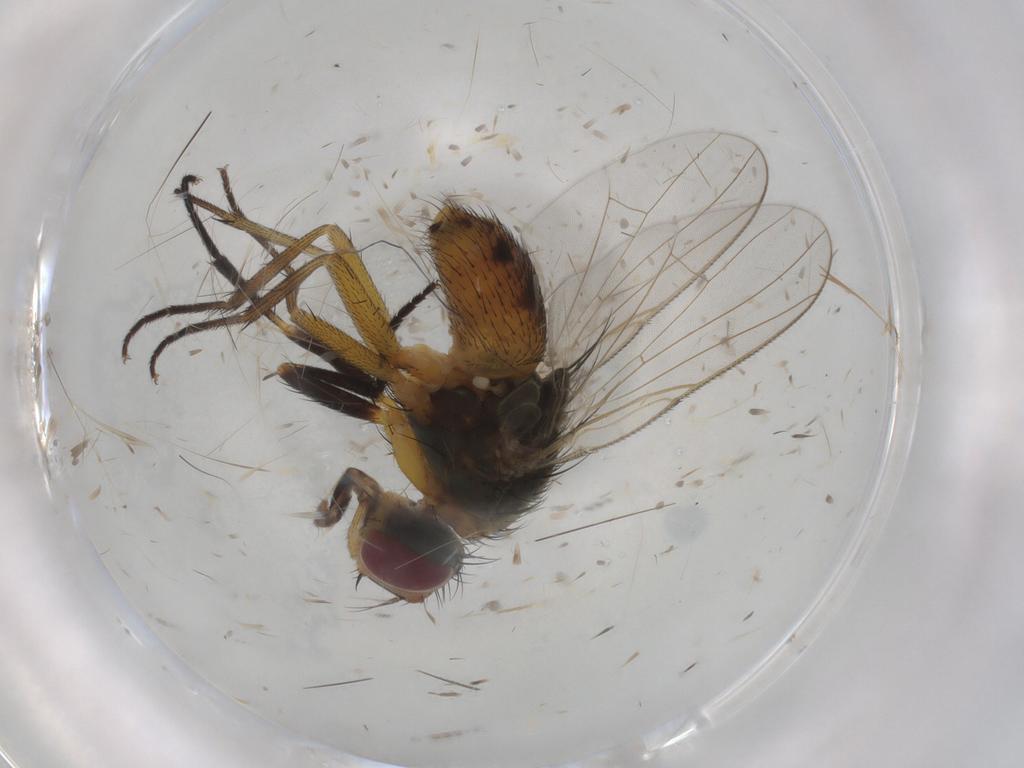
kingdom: Animalia
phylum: Arthropoda
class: Insecta
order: Diptera
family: Muscidae
